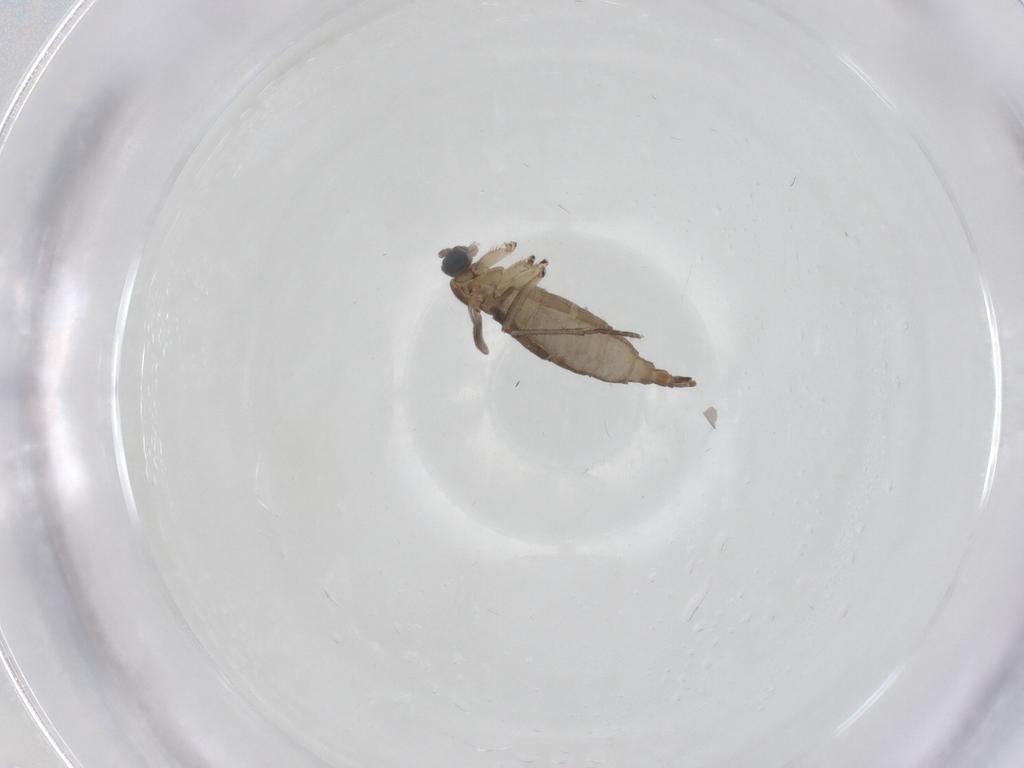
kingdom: Animalia
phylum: Arthropoda
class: Insecta
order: Diptera
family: Sciaridae
